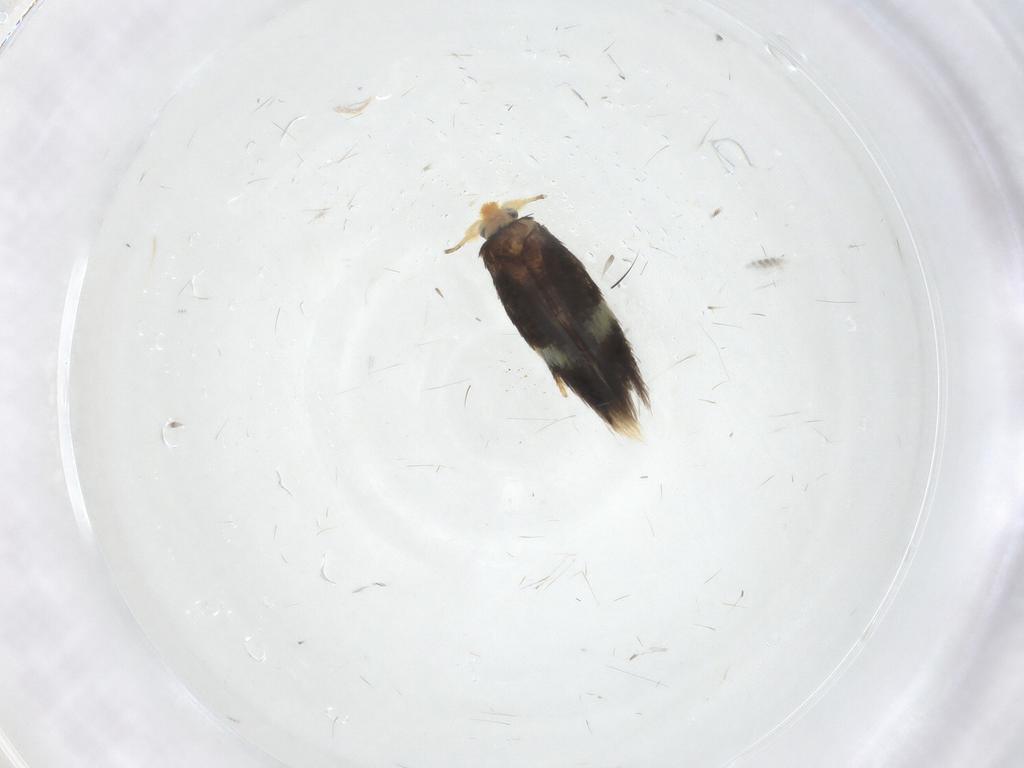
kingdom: Animalia
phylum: Arthropoda
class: Insecta
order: Lepidoptera
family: Nepticulidae
